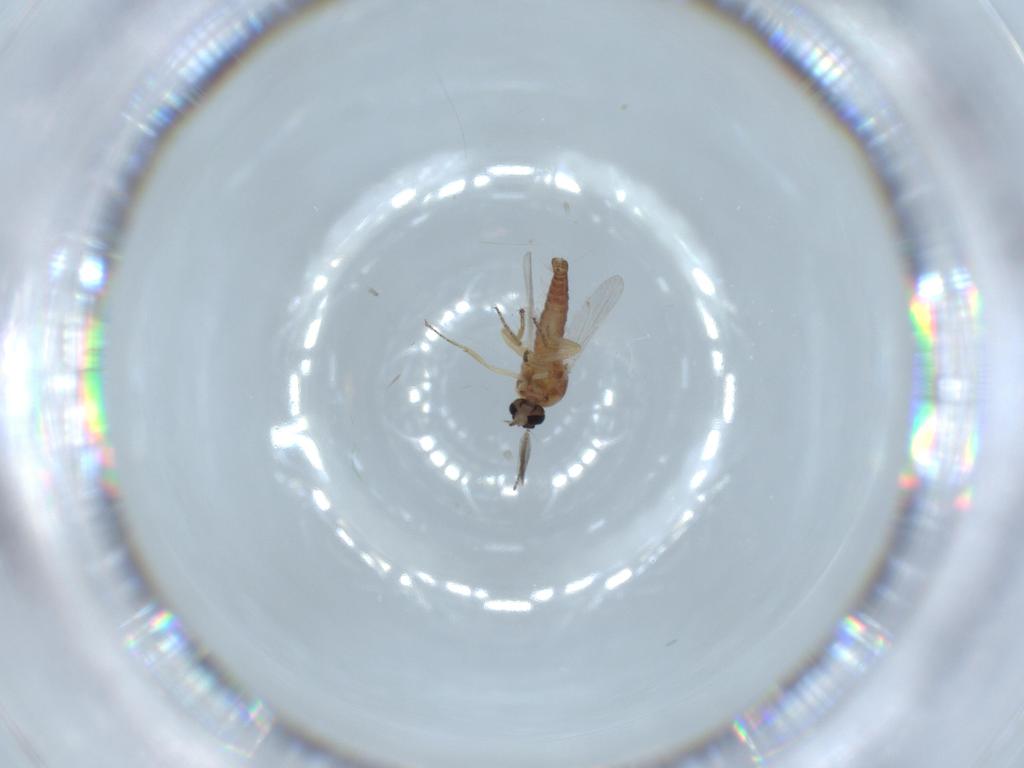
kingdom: Animalia
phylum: Arthropoda
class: Insecta
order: Diptera
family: Ceratopogonidae
